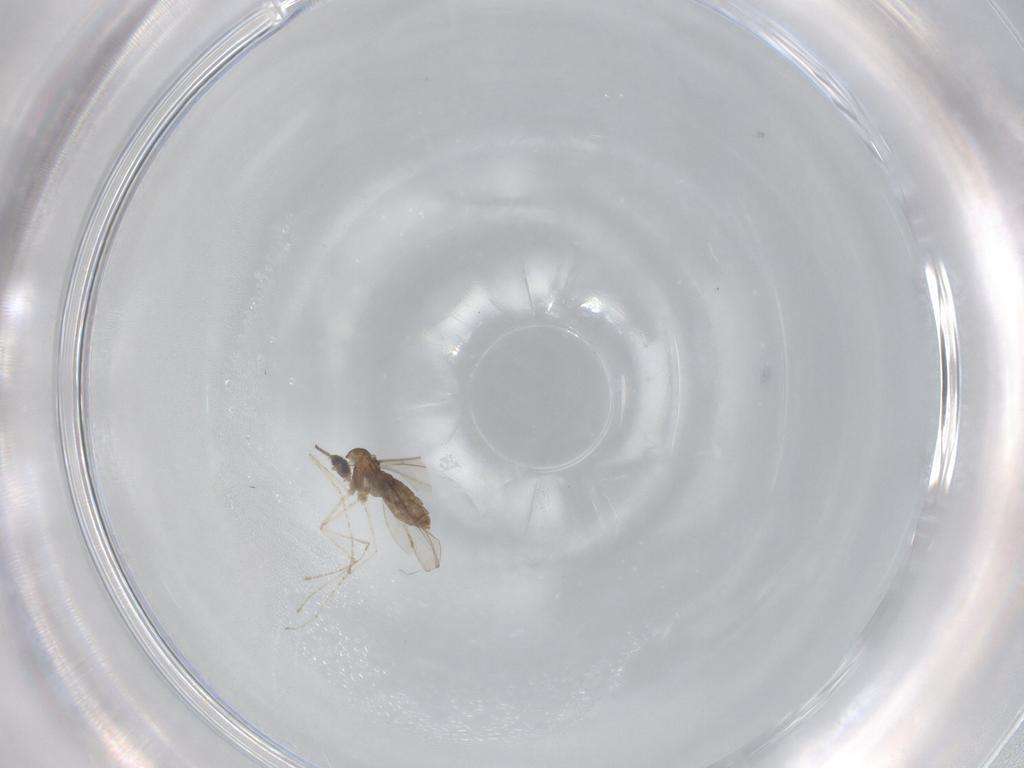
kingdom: Animalia
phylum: Arthropoda
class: Insecta
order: Diptera
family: Cecidomyiidae
